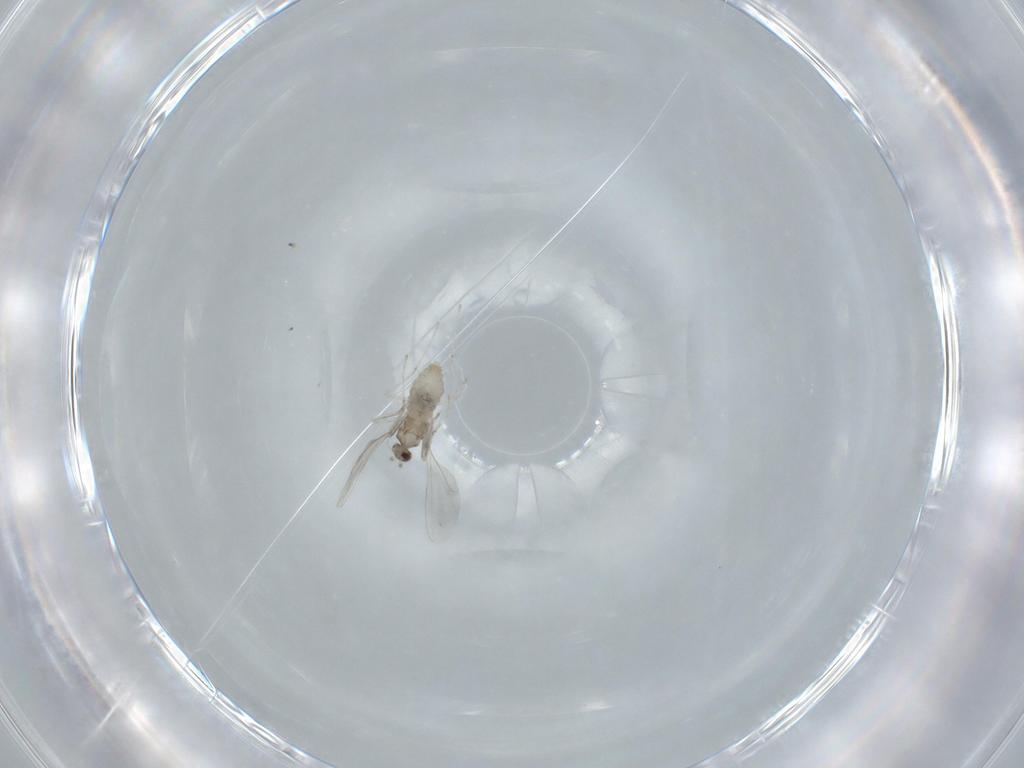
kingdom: Animalia
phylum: Arthropoda
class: Insecta
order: Diptera
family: Cecidomyiidae
